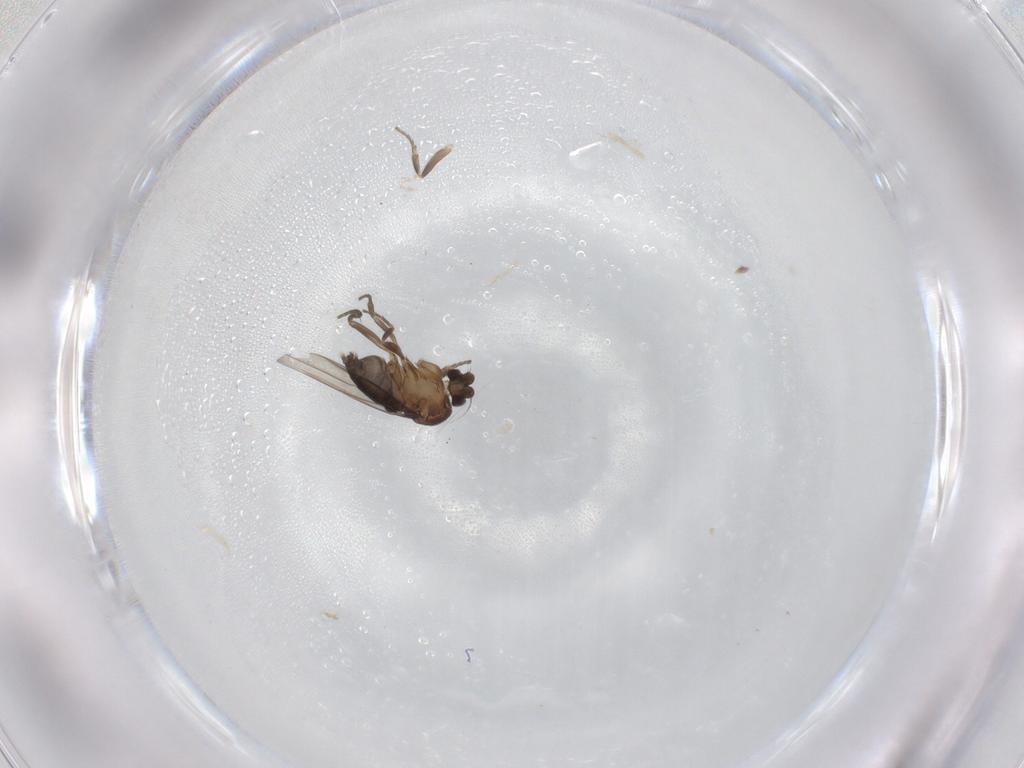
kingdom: Animalia
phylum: Arthropoda
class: Insecta
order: Diptera
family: Phoridae
